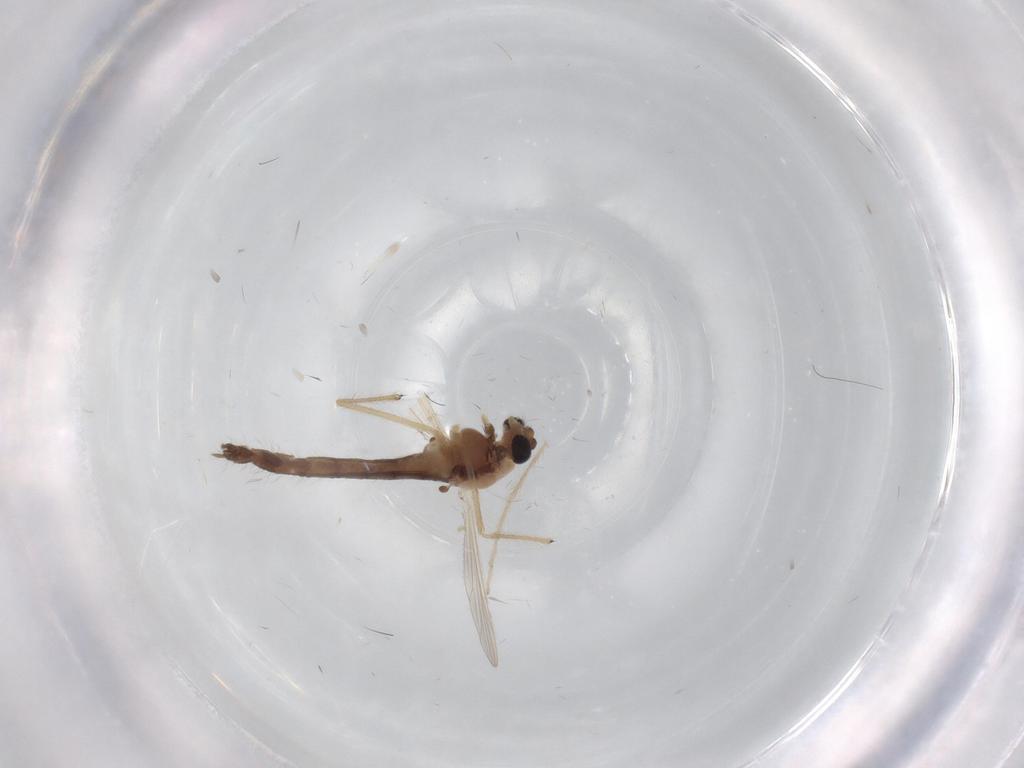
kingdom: Animalia
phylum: Arthropoda
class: Insecta
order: Diptera
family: Chironomidae
